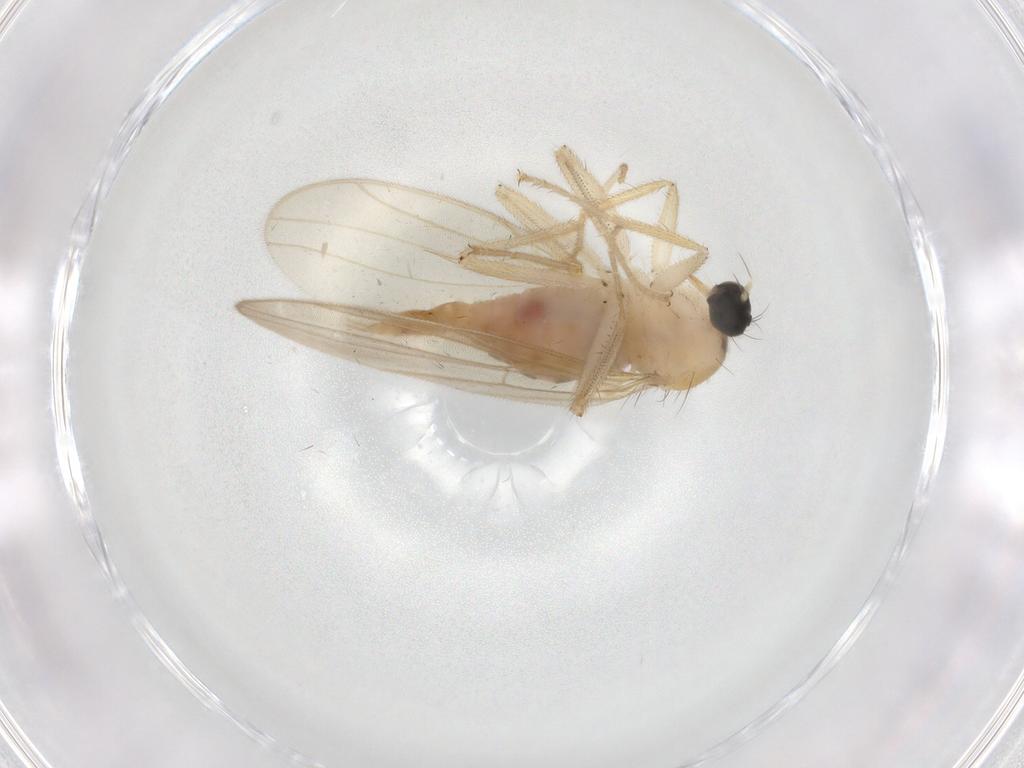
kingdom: Animalia
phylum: Arthropoda
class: Insecta
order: Diptera
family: Hybotidae
